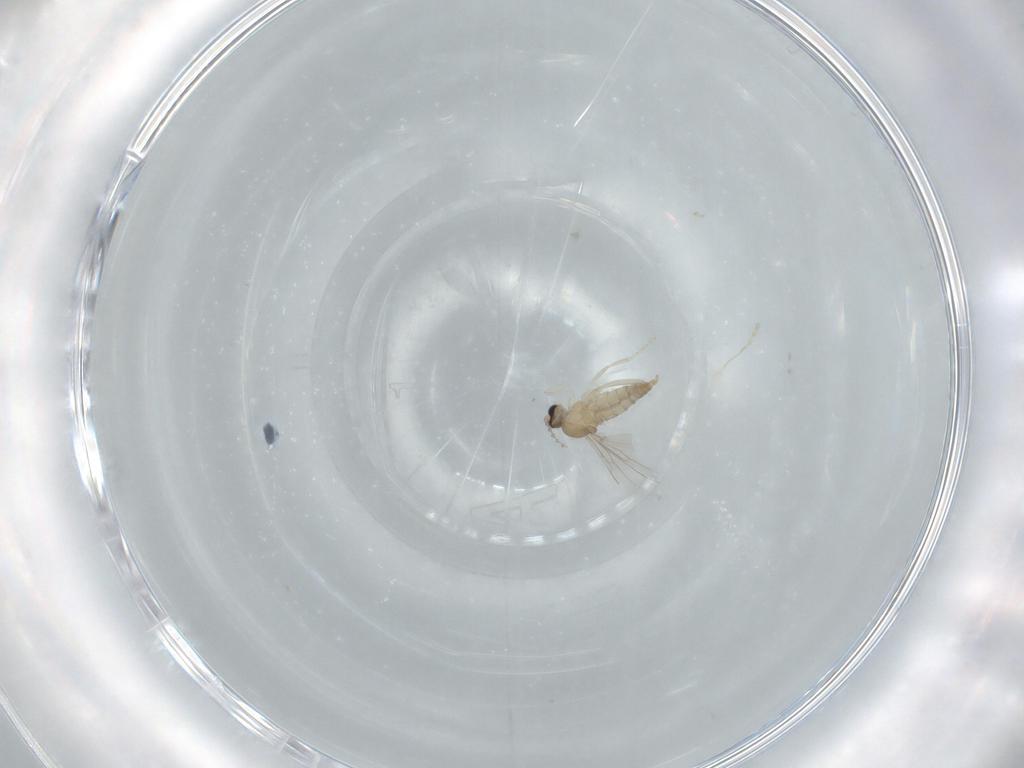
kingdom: Animalia
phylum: Arthropoda
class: Insecta
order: Diptera
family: Cecidomyiidae
